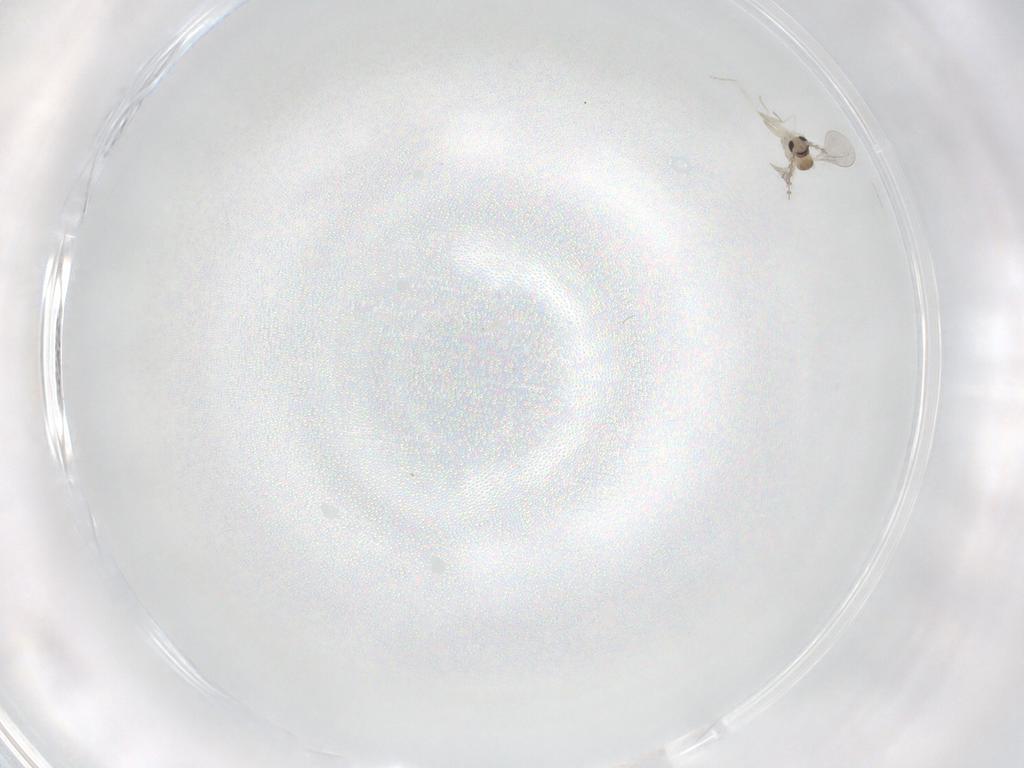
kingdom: Animalia
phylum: Arthropoda
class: Insecta
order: Diptera
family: Cecidomyiidae
